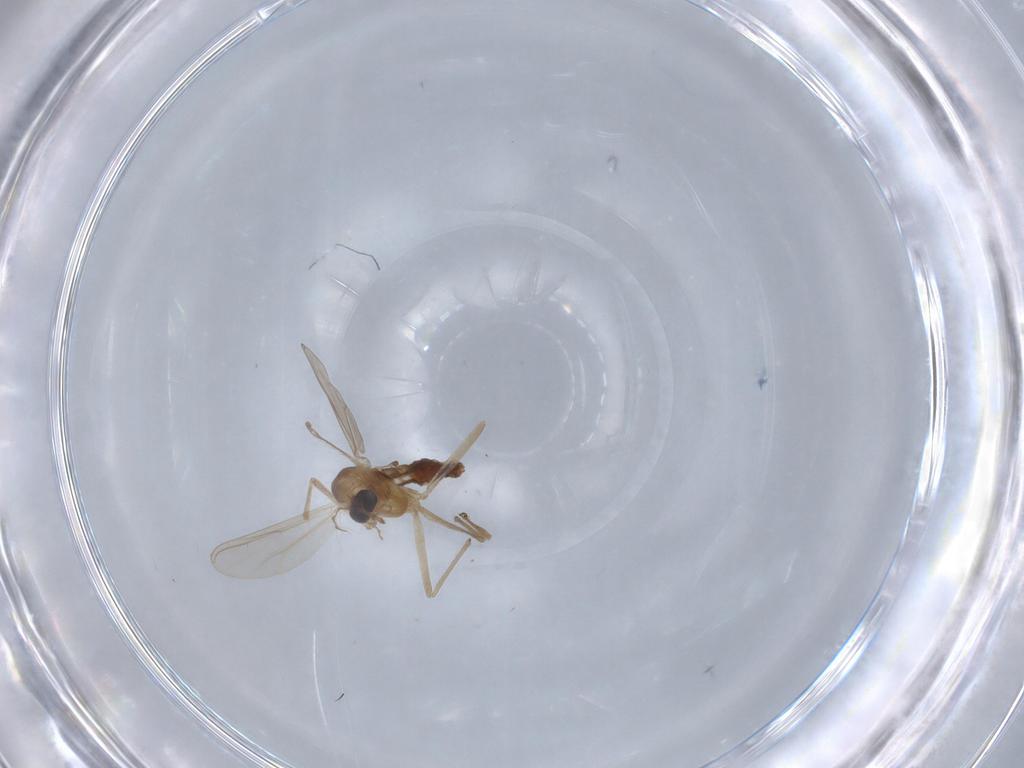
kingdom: Animalia
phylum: Arthropoda
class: Insecta
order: Diptera
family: Chironomidae
